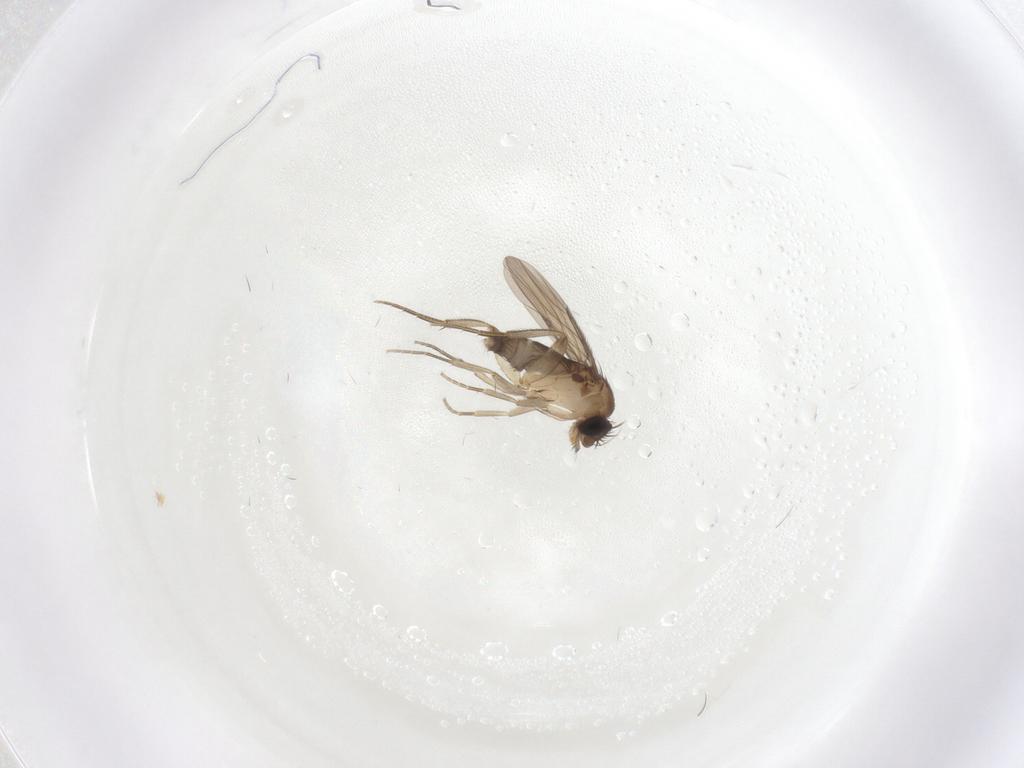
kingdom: Animalia
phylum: Arthropoda
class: Insecta
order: Diptera
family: Phoridae
